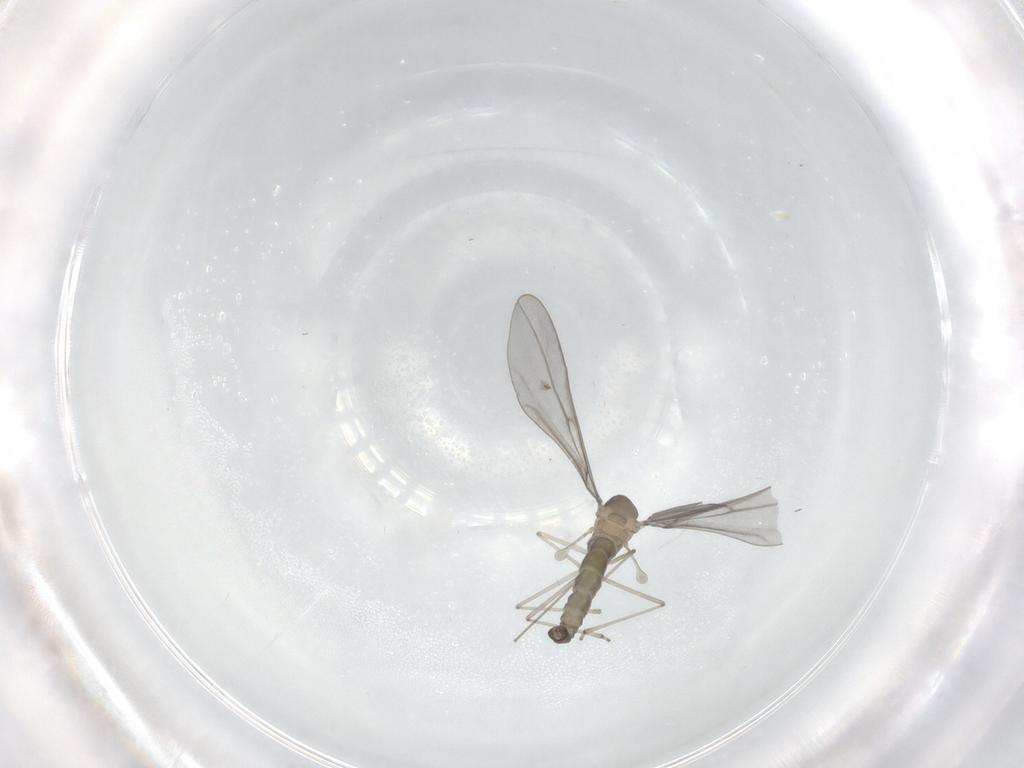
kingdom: Animalia
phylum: Arthropoda
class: Insecta
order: Diptera
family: Cecidomyiidae
